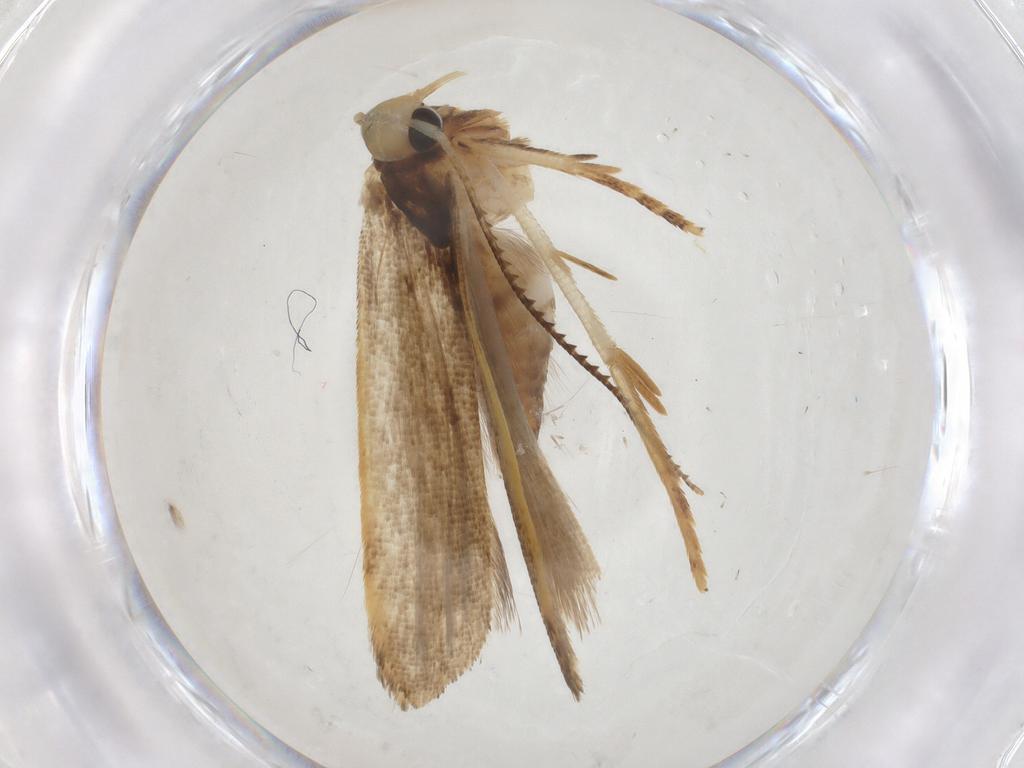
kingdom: Animalia
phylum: Arthropoda
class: Insecta
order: Lepidoptera
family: Gelechiidae
